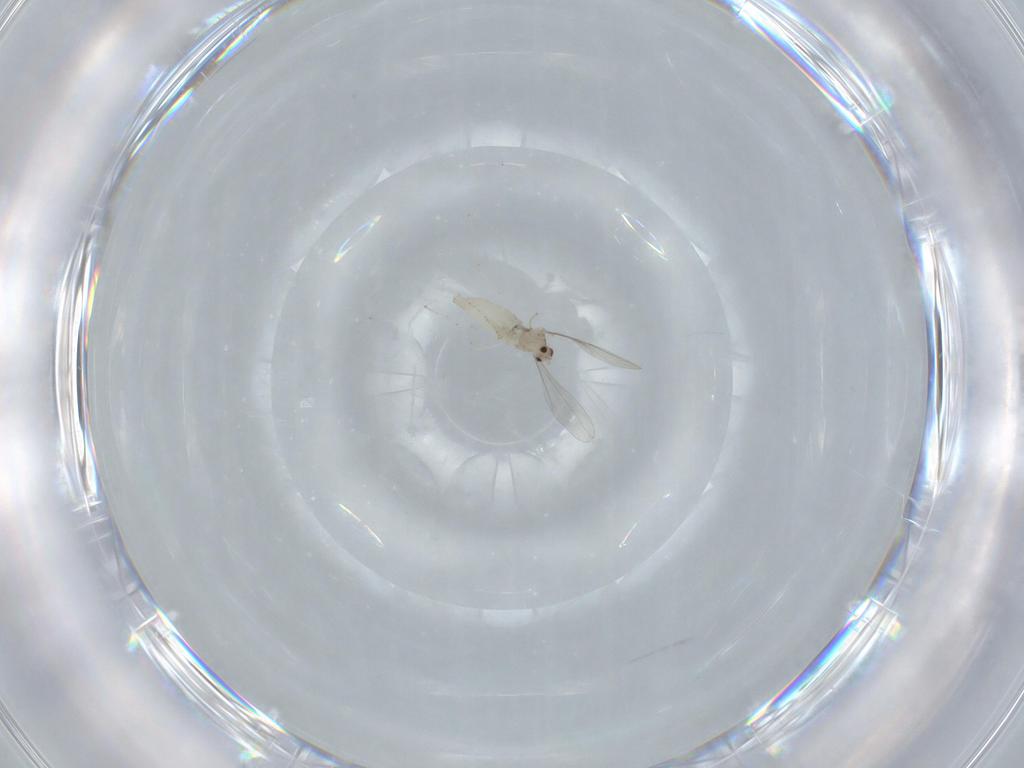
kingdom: Animalia
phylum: Arthropoda
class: Insecta
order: Diptera
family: Cecidomyiidae
